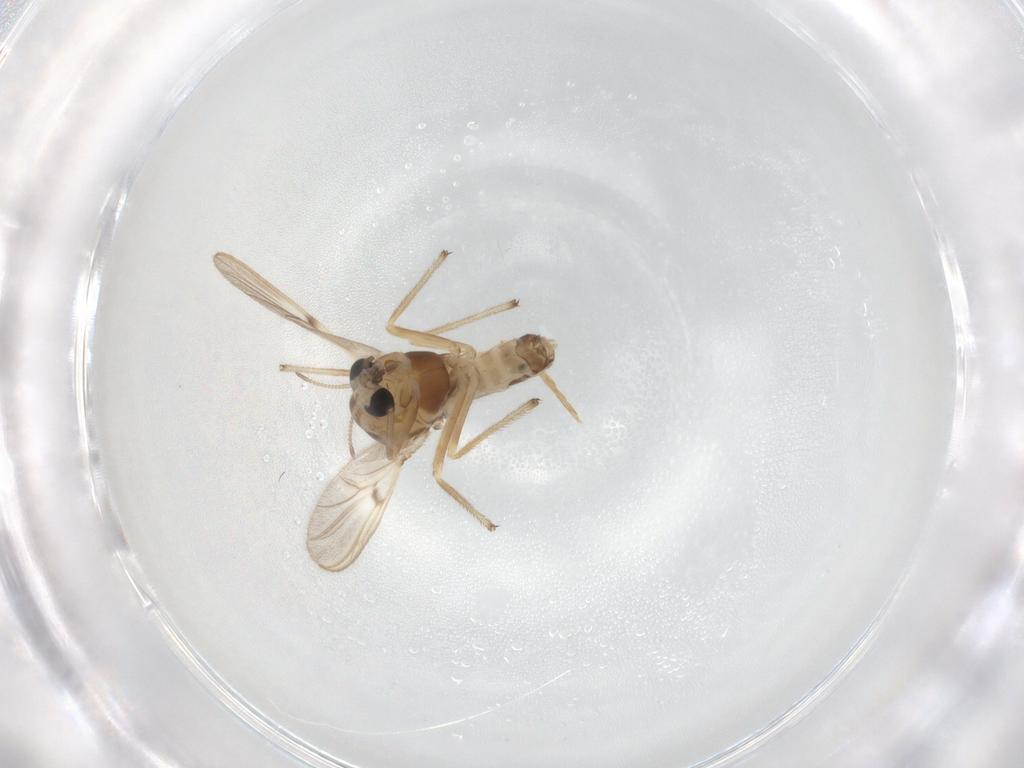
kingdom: Animalia
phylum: Arthropoda
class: Insecta
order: Diptera
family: Chironomidae
